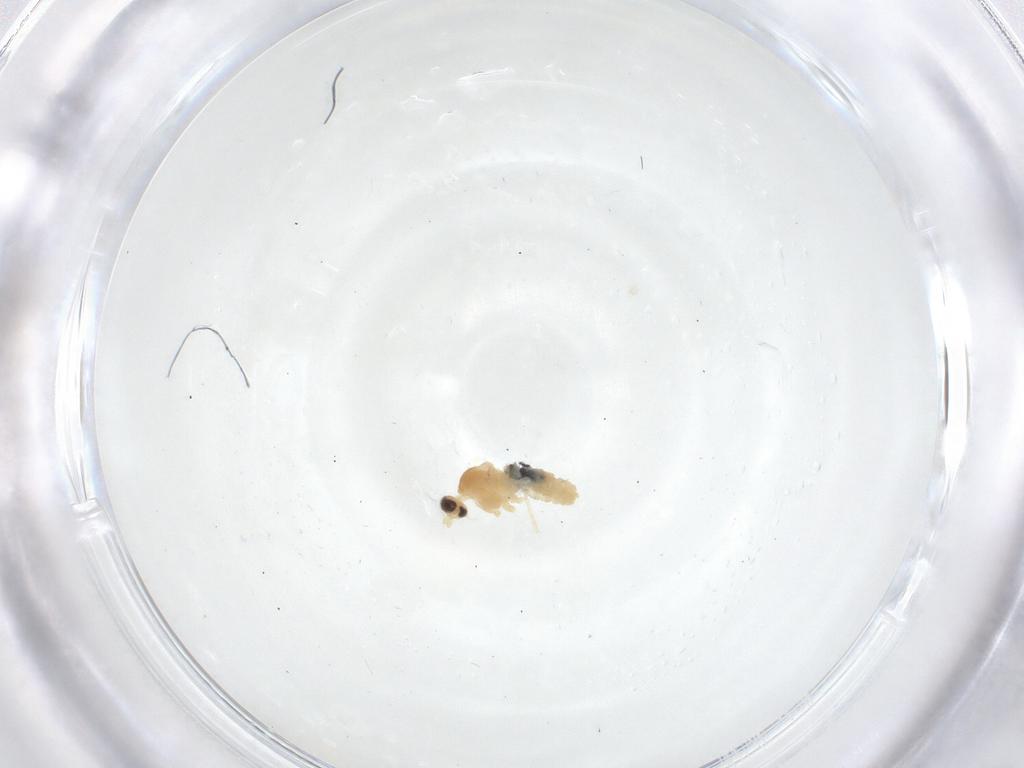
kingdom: Animalia
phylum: Arthropoda
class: Insecta
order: Diptera
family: Cecidomyiidae
